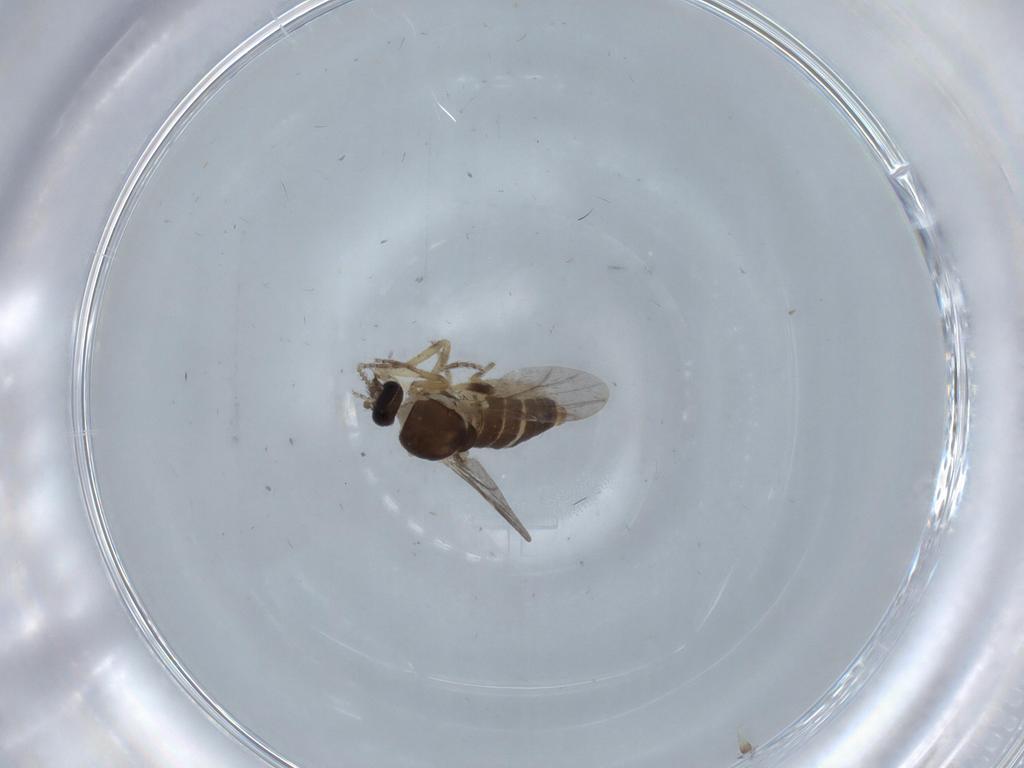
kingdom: Animalia
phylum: Arthropoda
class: Insecta
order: Diptera
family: Ceratopogonidae
